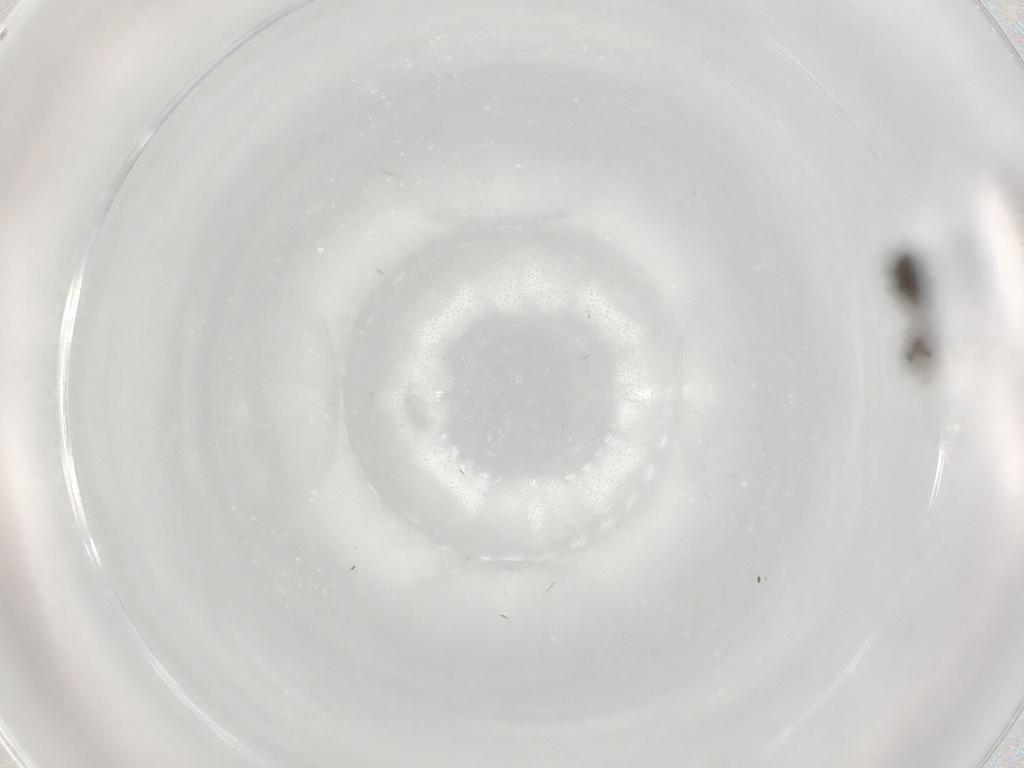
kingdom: Animalia
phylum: Arthropoda
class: Insecta
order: Diptera
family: Phoridae
